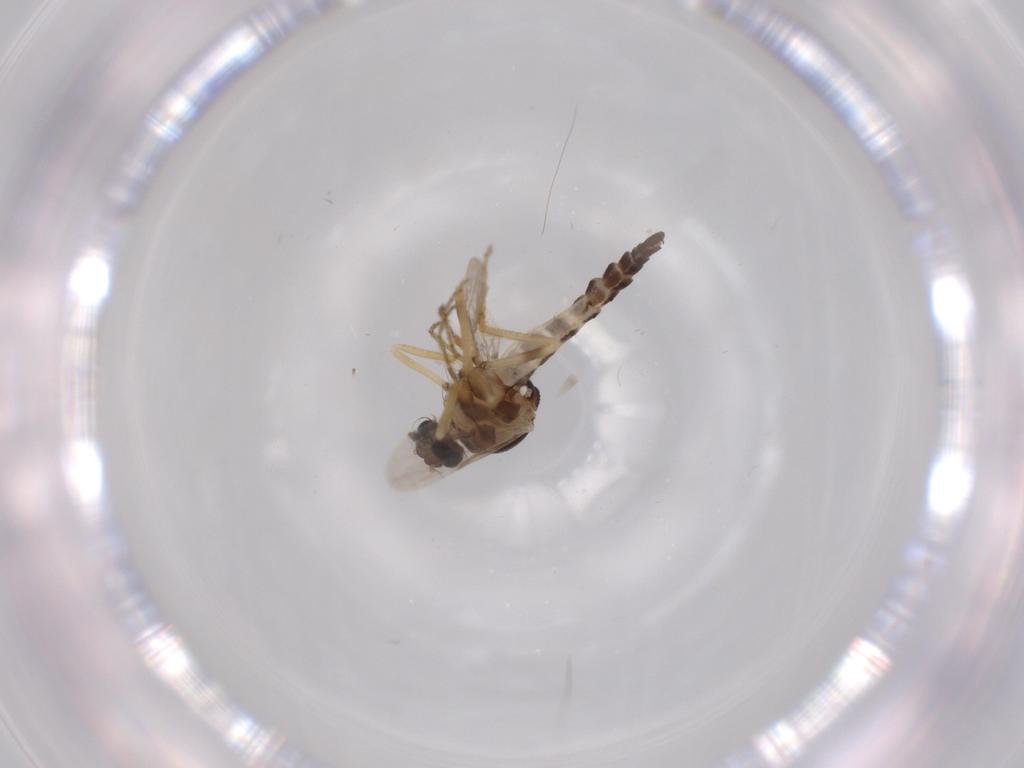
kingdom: Animalia
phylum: Arthropoda
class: Insecta
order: Diptera
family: Ceratopogonidae
